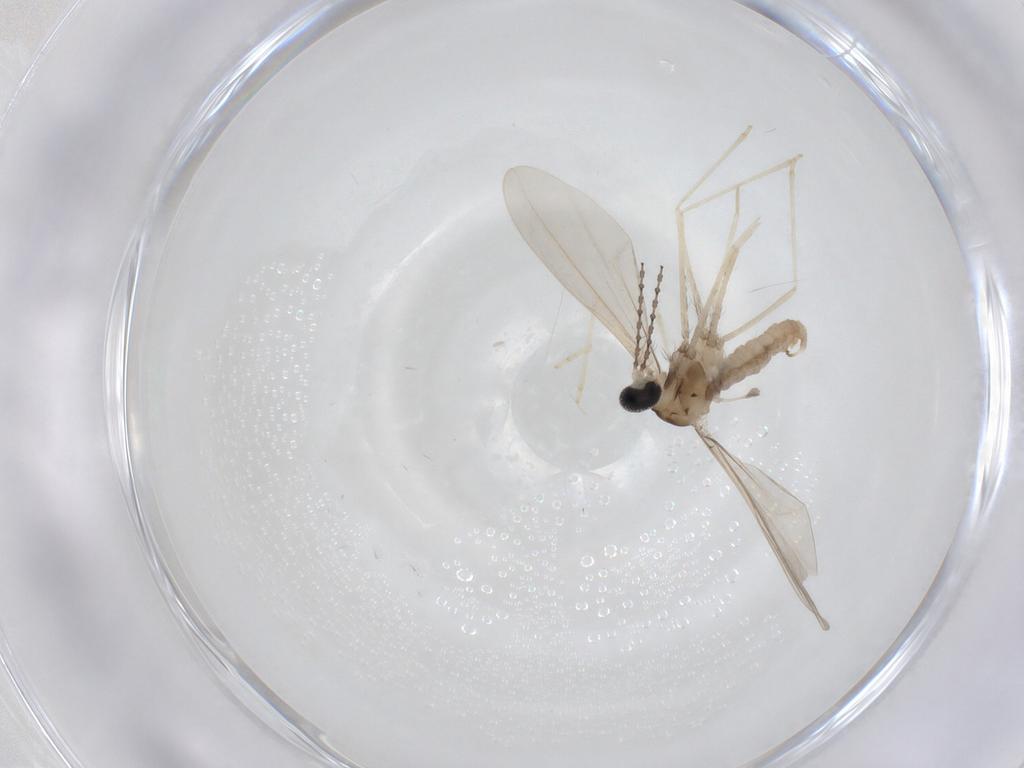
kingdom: Animalia
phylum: Arthropoda
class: Insecta
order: Diptera
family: Cecidomyiidae
